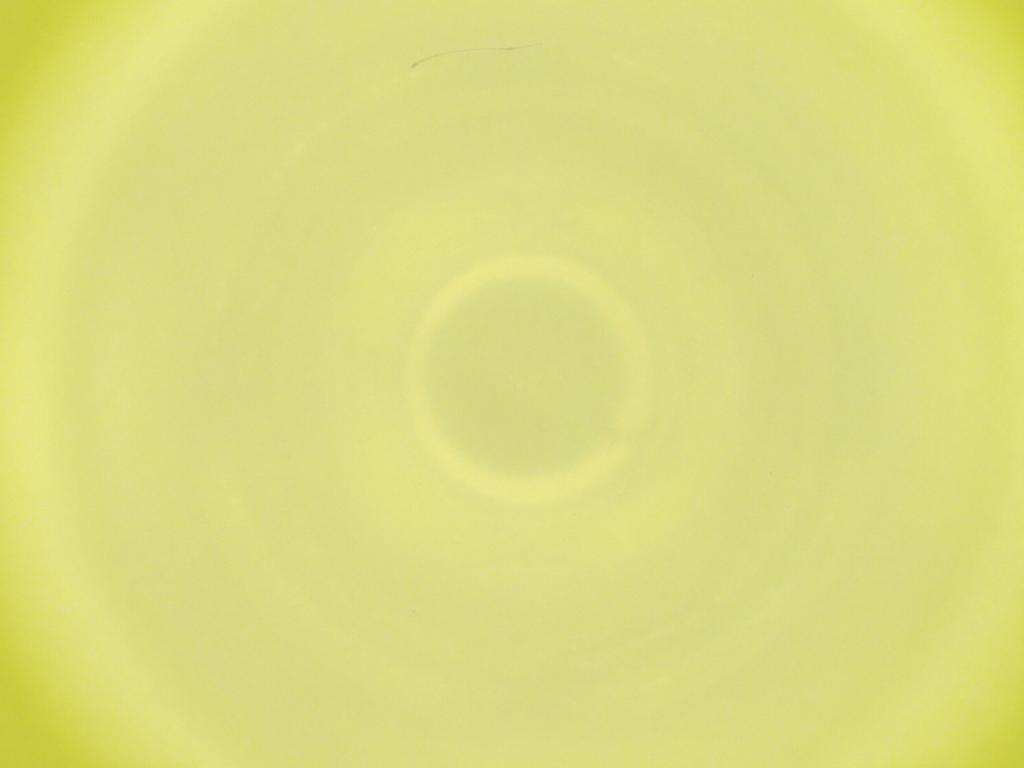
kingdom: Animalia
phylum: Arthropoda
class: Insecta
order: Diptera
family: Cecidomyiidae
